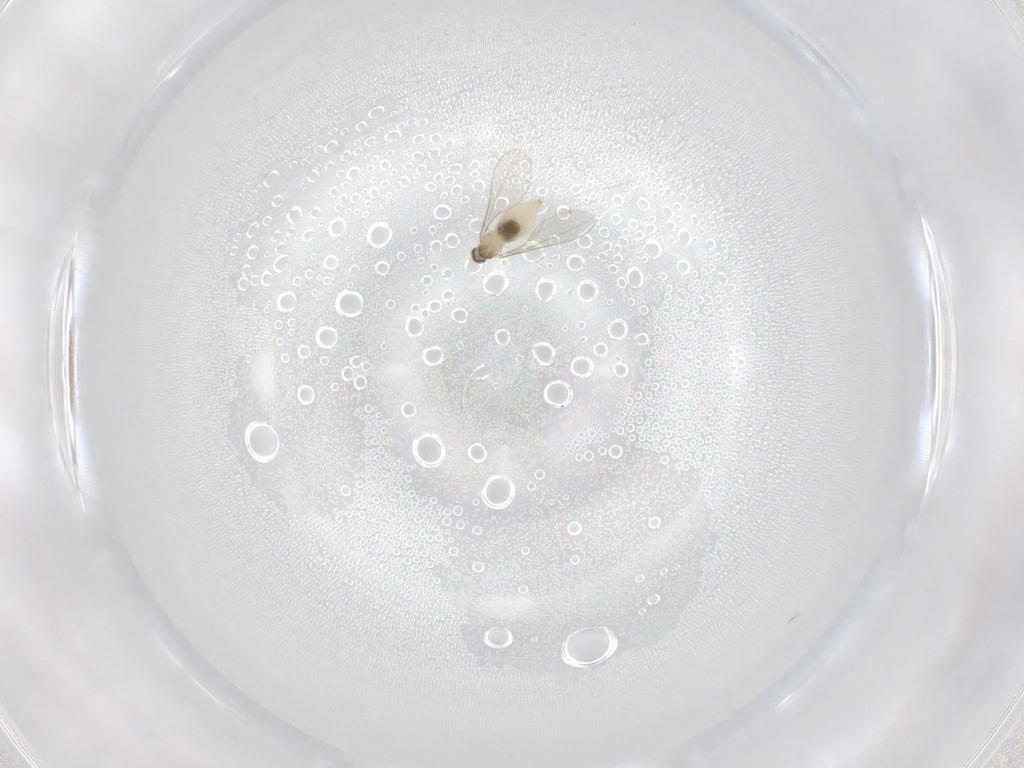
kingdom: Animalia
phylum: Arthropoda
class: Insecta
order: Diptera
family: Cecidomyiidae
